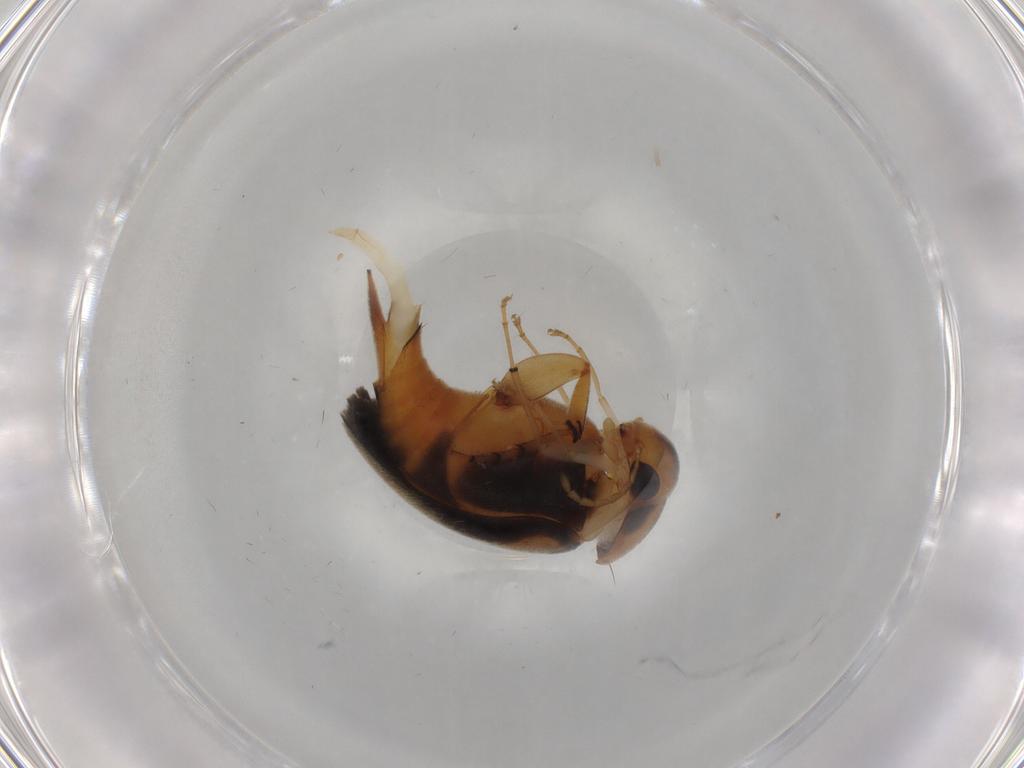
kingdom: Animalia
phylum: Arthropoda
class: Insecta
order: Coleoptera
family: Mordellidae
